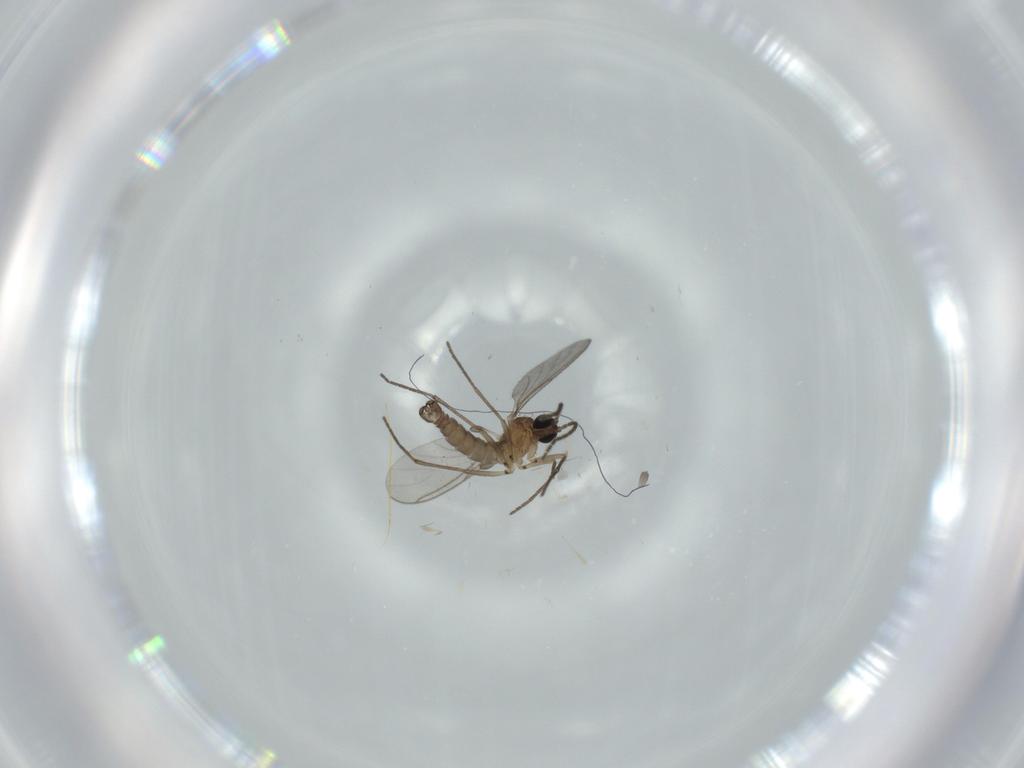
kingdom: Animalia
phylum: Arthropoda
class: Insecta
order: Diptera
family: Sciaridae
